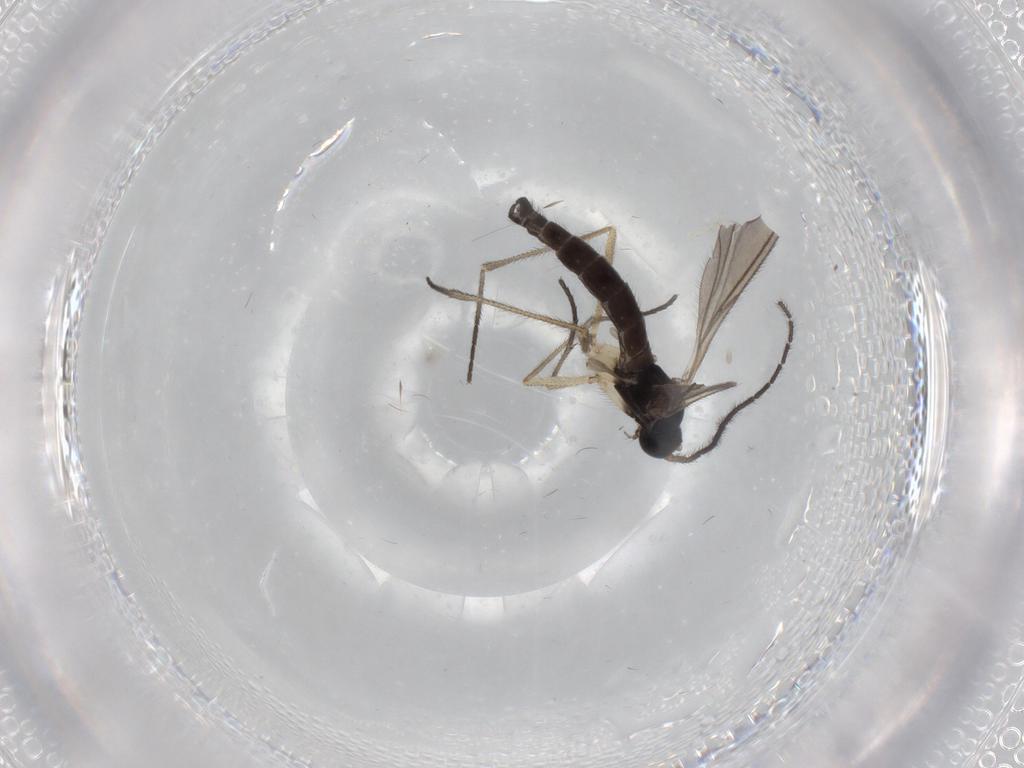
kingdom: Animalia
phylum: Arthropoda
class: Insecta
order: Diptera
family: Sciaridae
